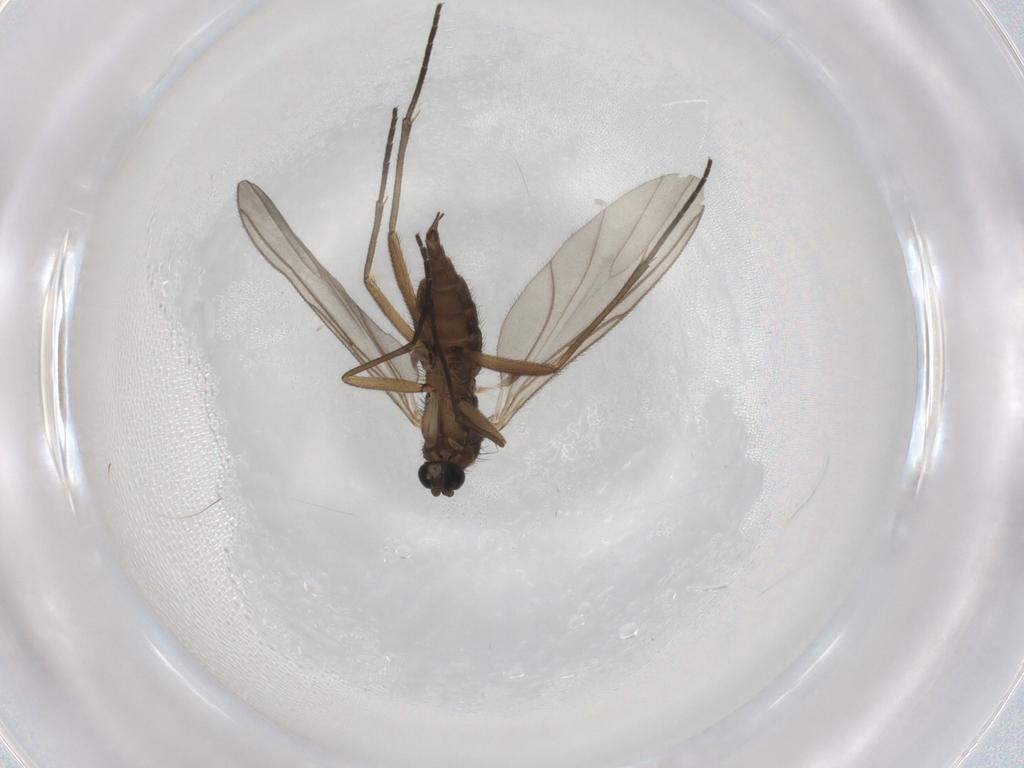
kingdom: Animalia
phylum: Arthropoda
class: Insecta
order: Diptera
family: Sciaridae
